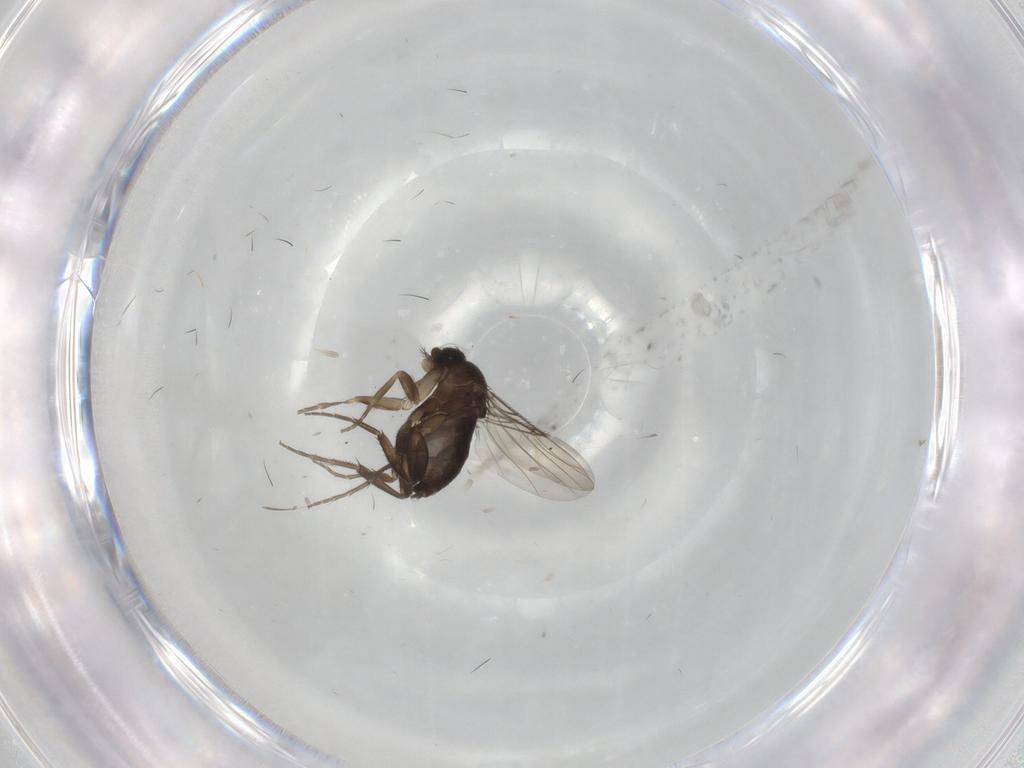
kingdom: Animalia
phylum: Arthropoda
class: Insecta
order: Diptera
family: Phoridae
